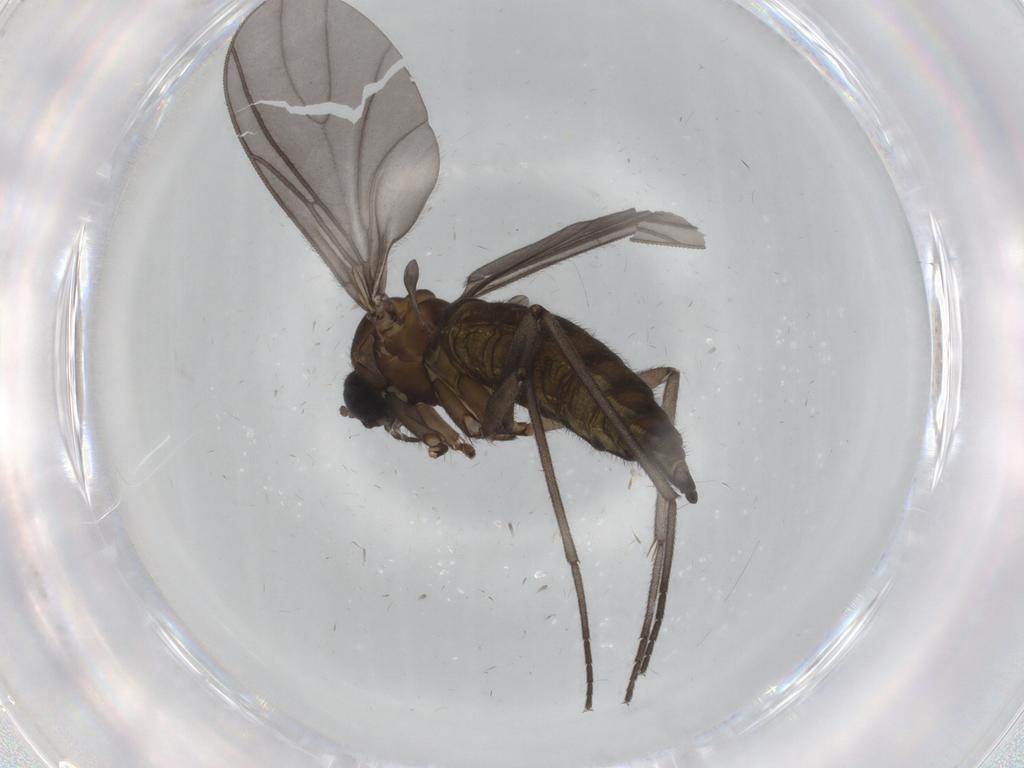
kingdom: Animalia
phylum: Arthropoda
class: Insecta
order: Diptera
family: Sciaridae
